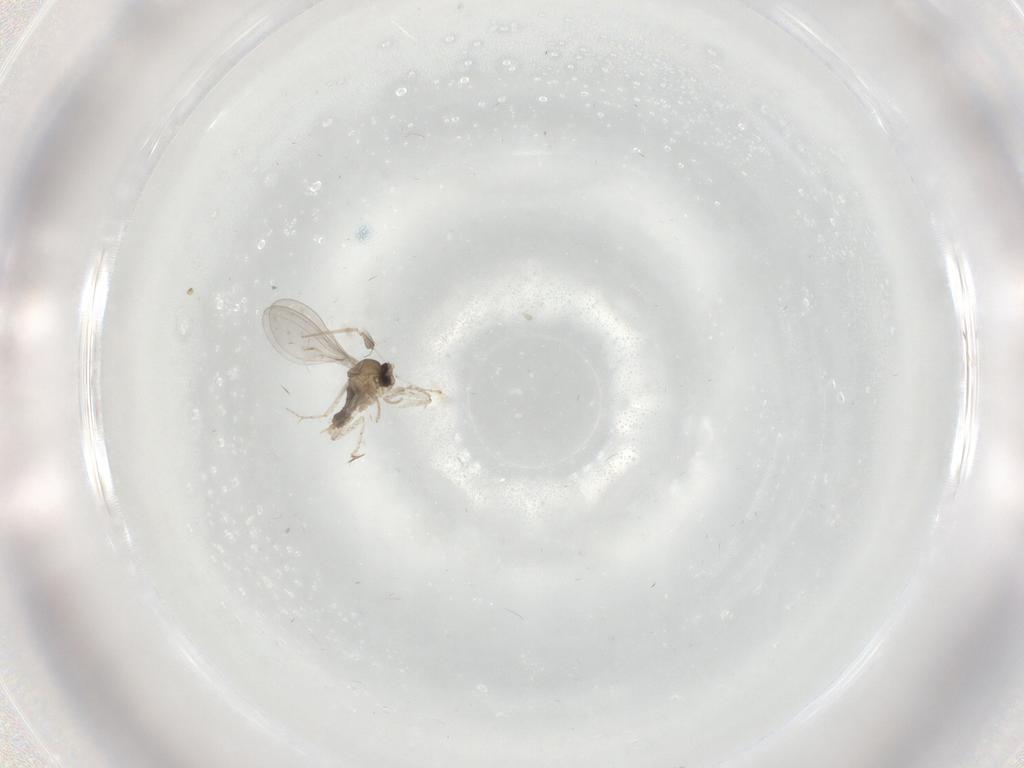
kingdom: Animalia
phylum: Arthropoda
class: Insecta
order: Diptera
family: Cecidomyiidae
